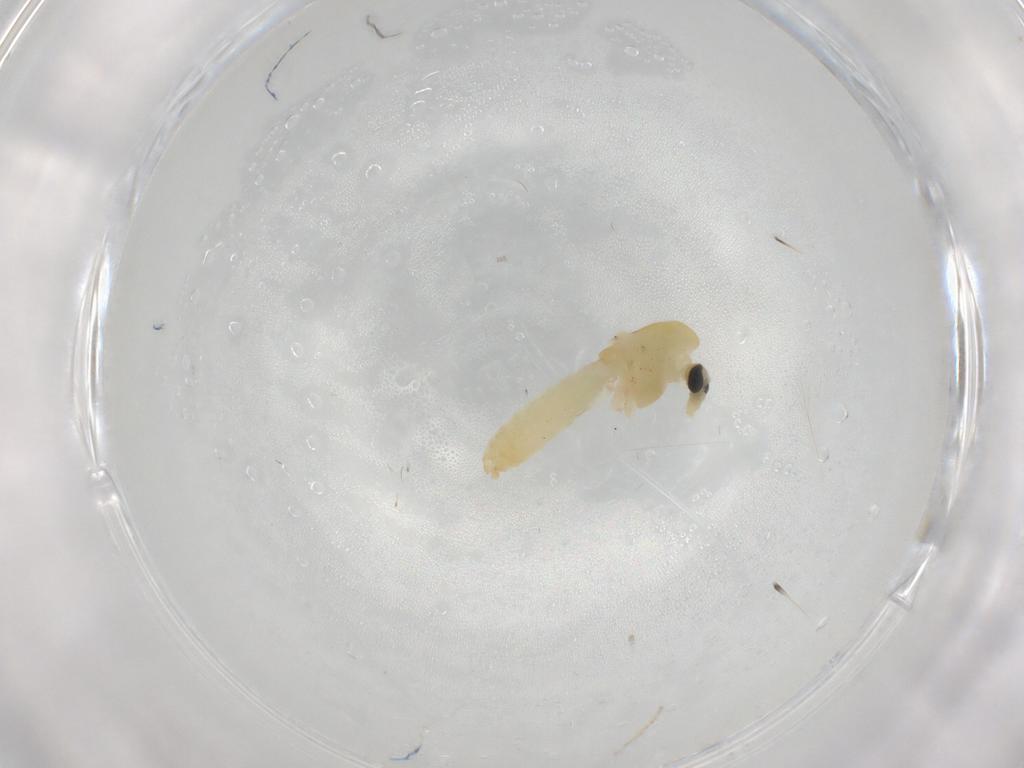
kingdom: Animalia
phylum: Arthropoda
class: Insecta
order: Diptera
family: Chironomidae
